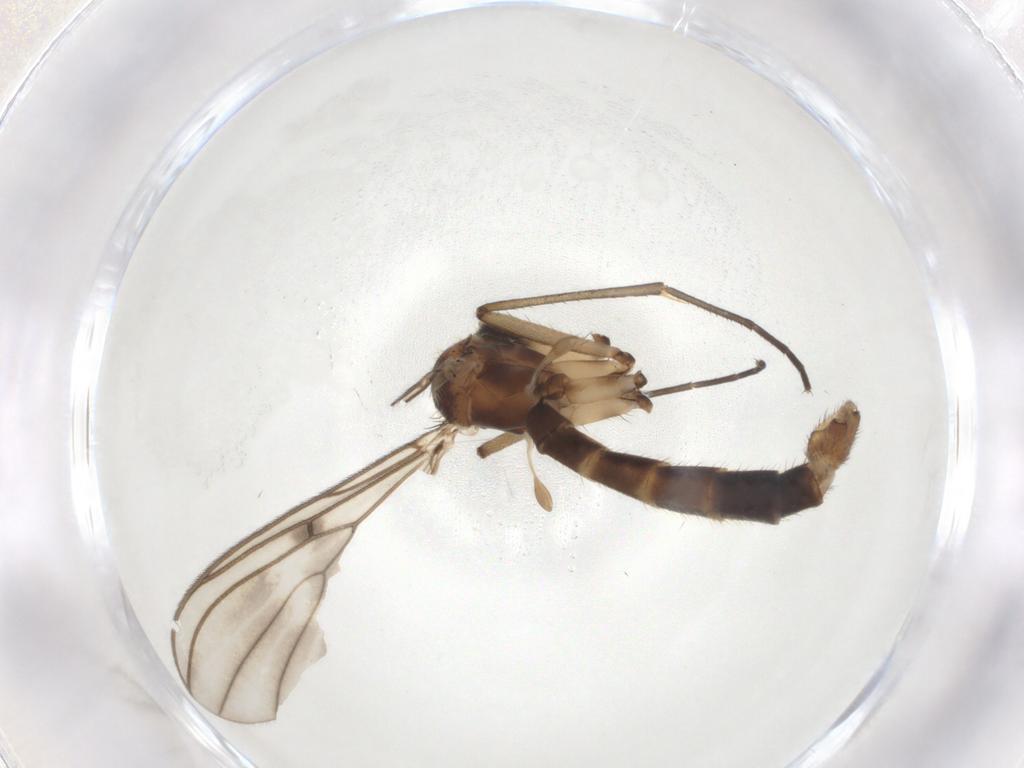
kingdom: Animalia
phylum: Arthropoda
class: Insecta
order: Diptera
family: Mycetophilidae
